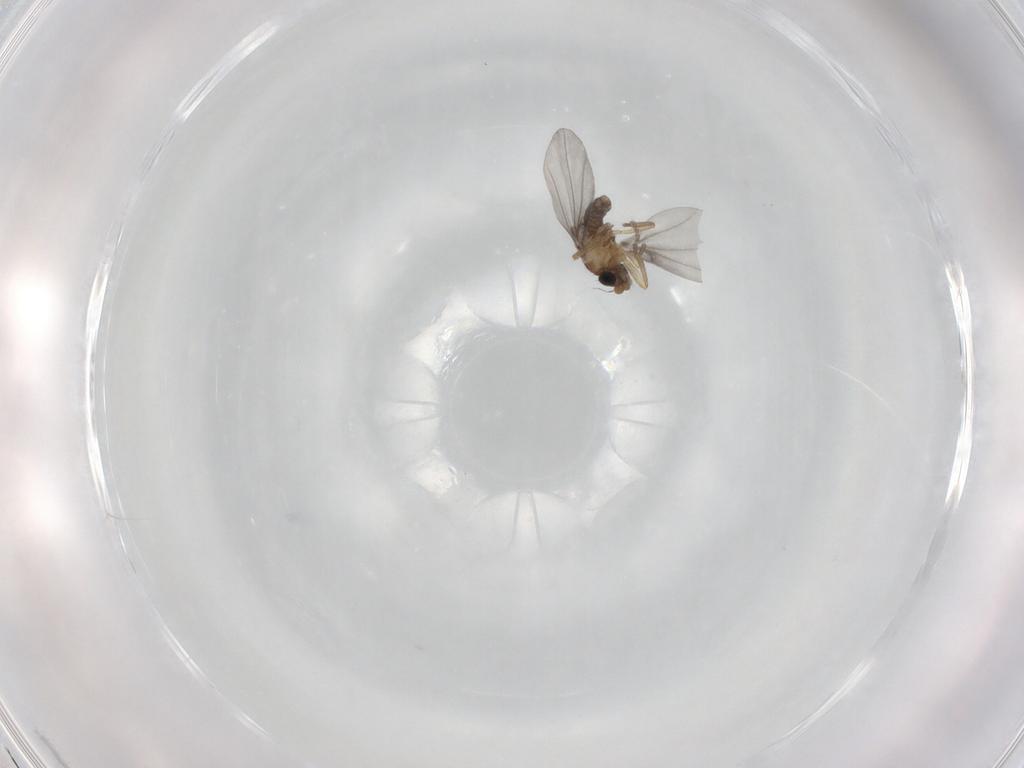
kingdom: Animalia
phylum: Arthropoda
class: Insecta
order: Diptera
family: Phoridae
